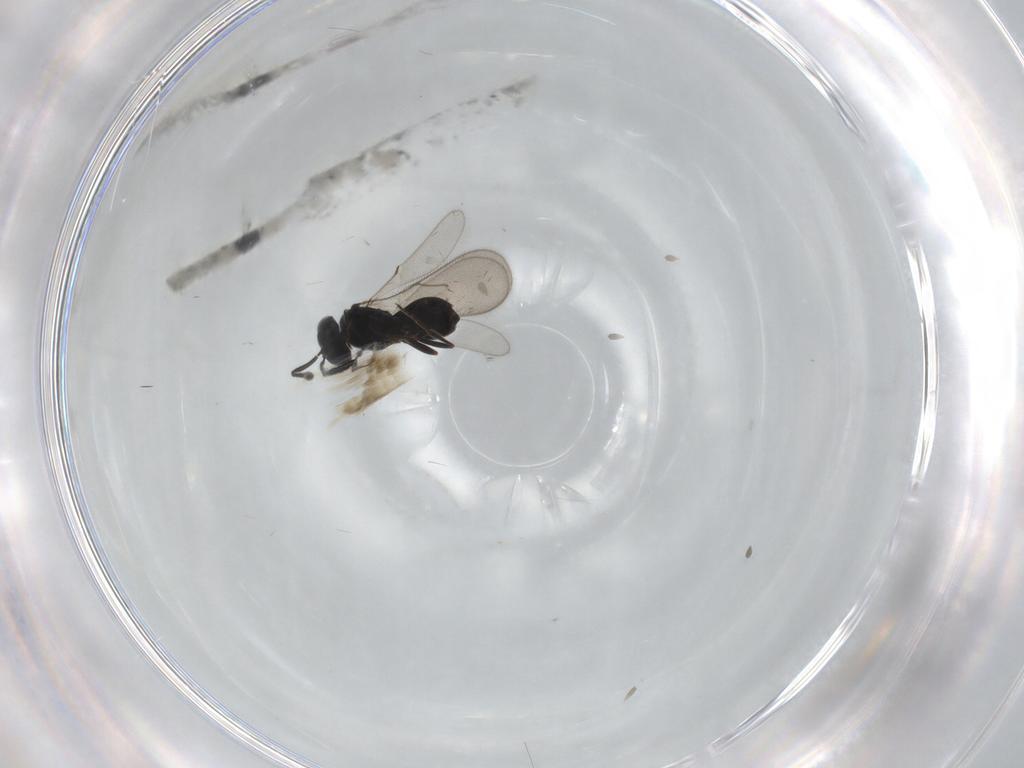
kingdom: Animalia
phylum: Arthropoda
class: Insecta
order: Hymenoptera
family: Scelionidae
